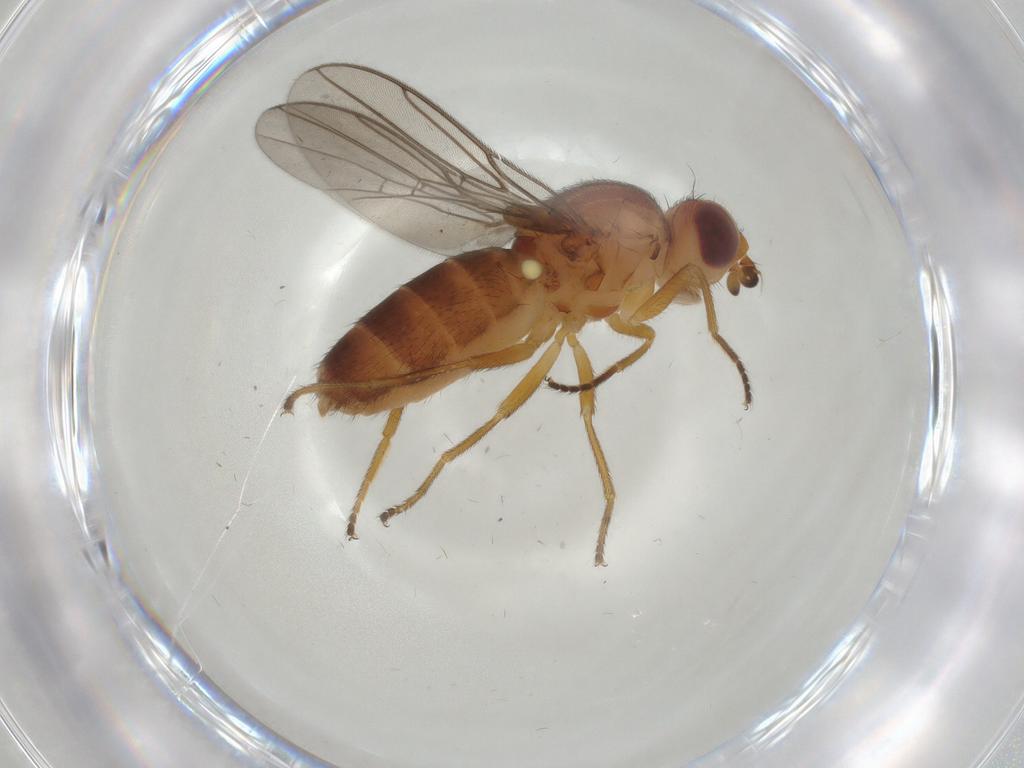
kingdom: Animalia
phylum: Arthropoda
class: Insecta
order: Diptera
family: Chloropidae
